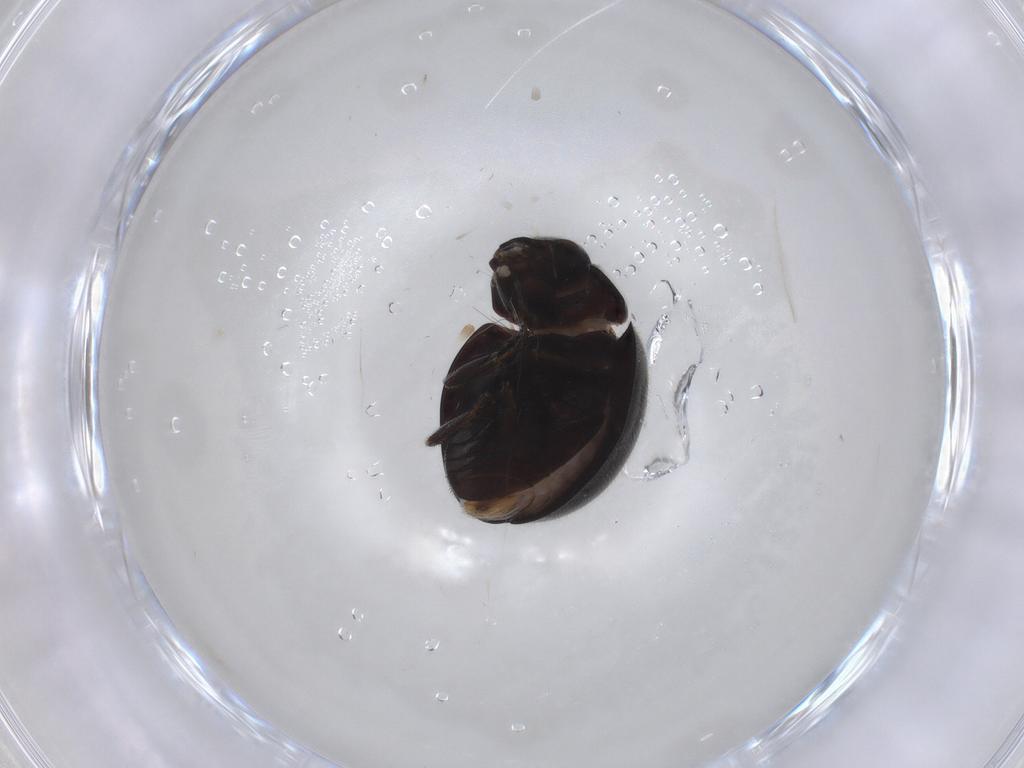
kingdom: Animalia
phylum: Arthropoda
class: Insecta
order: Coleoptera
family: Coccinellidae
